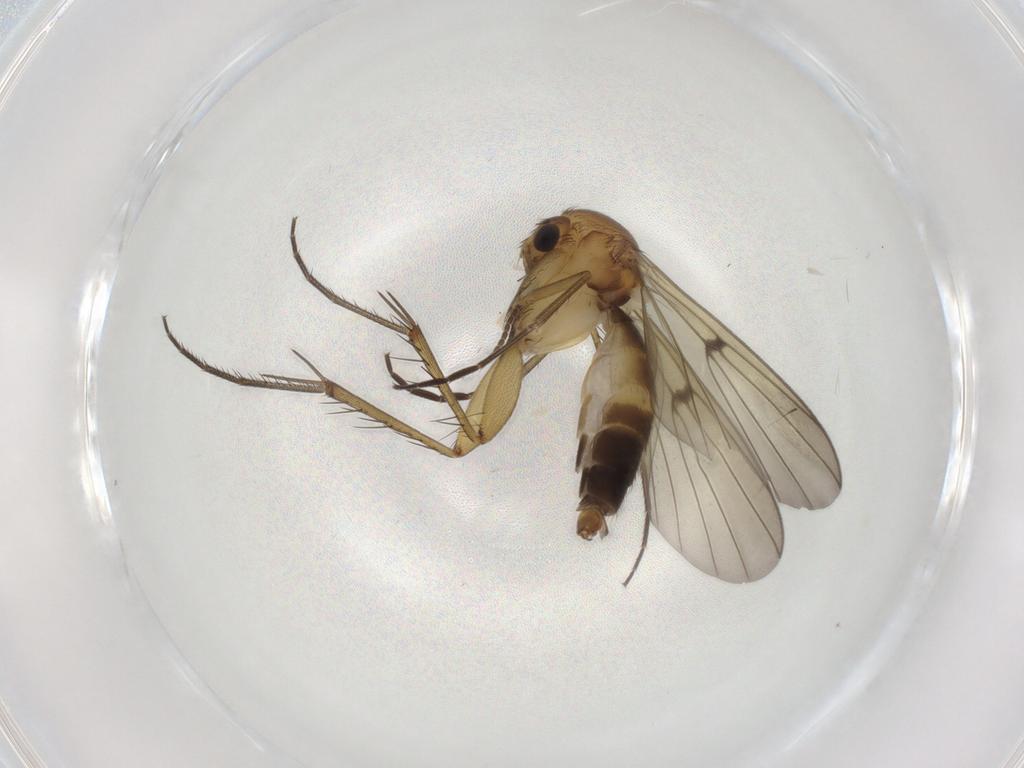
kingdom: Animalia
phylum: Arthropoda
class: Insecta
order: Diptera
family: Mycetophilidae
